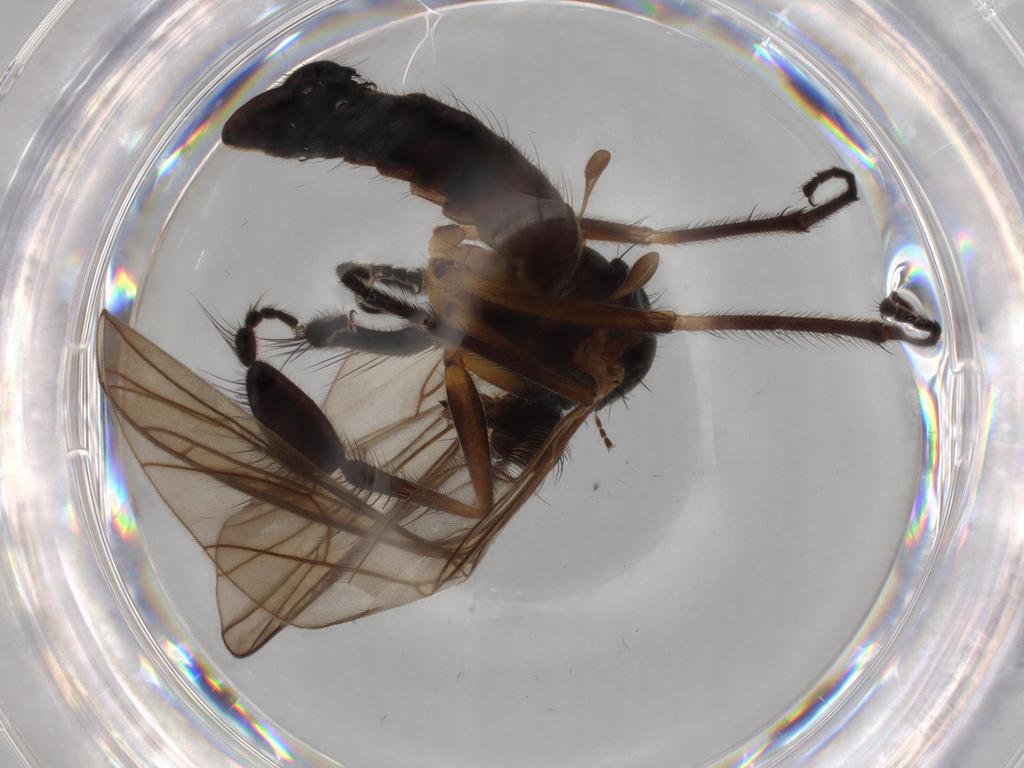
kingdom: Animalia
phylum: Arthropoda
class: Insecta
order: Diptera
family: Empididae
